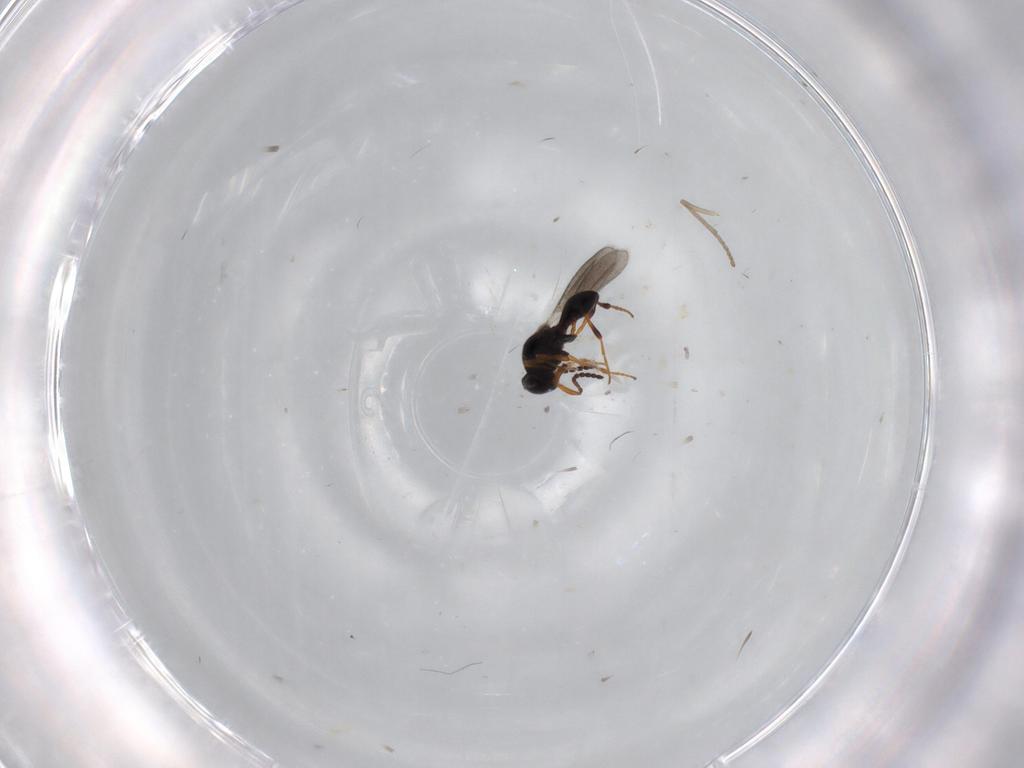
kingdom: Animalia
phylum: Arthropoda
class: Insecta
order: Hymenoptera
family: Platygastridae
